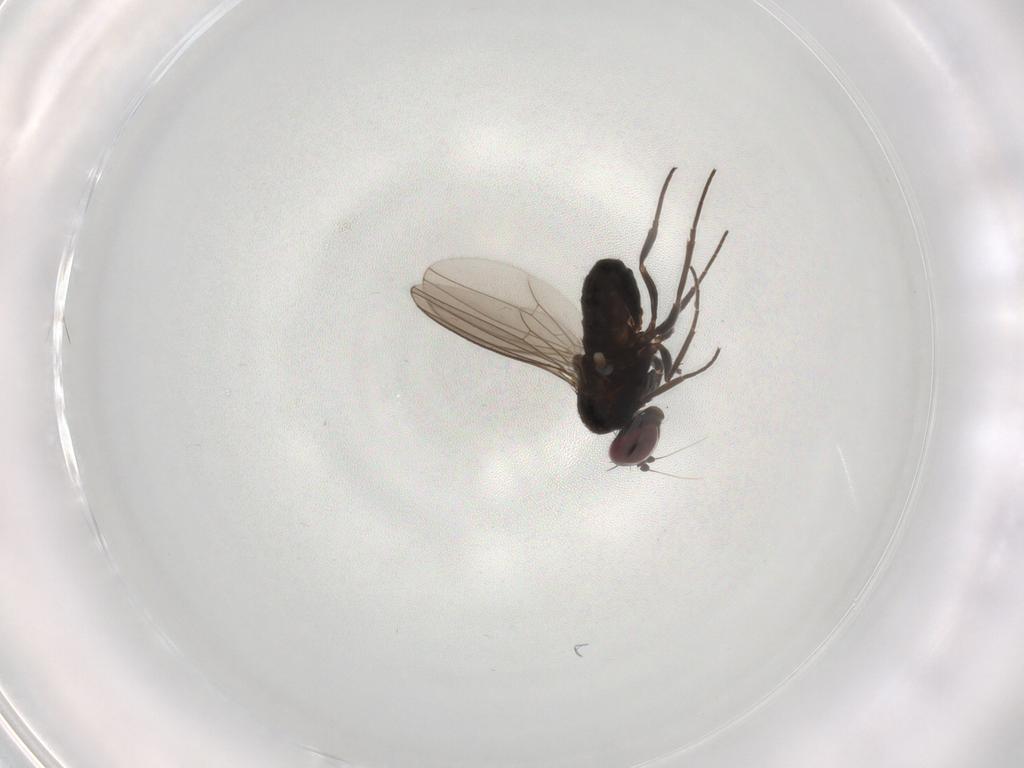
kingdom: Animalia
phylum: Arthropoda
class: Insecta
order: Diptera
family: Dolichopodidae
